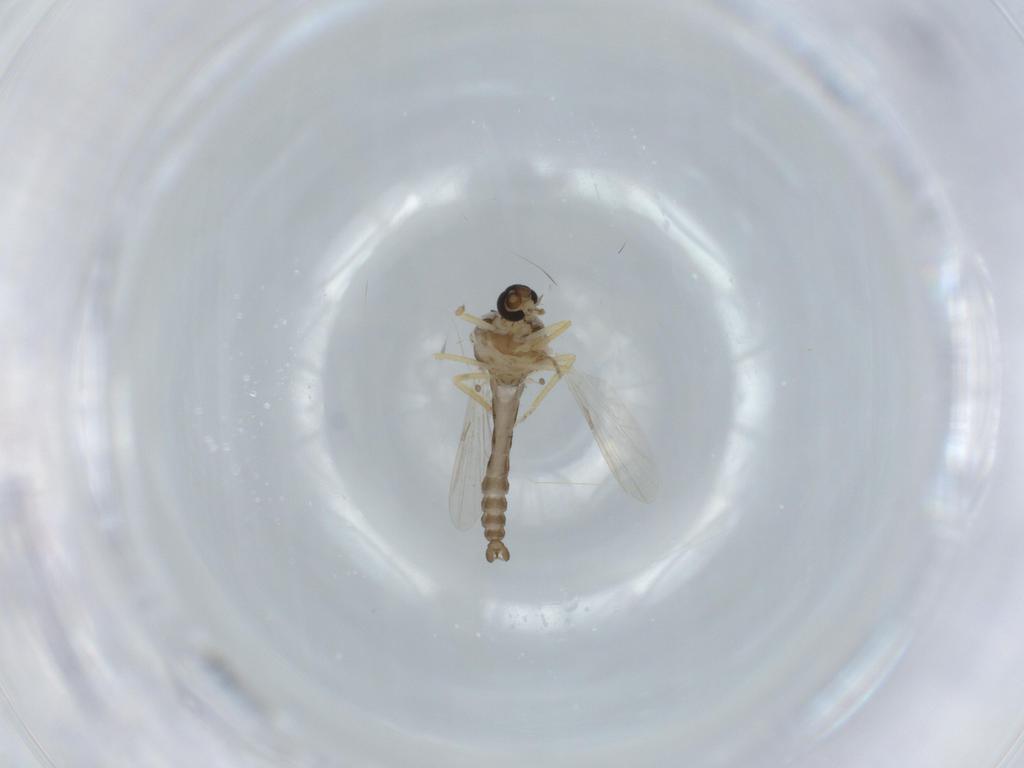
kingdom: Animalia
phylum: Arthropoda
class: Insecta
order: Diptera
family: Ceratopogonidae
